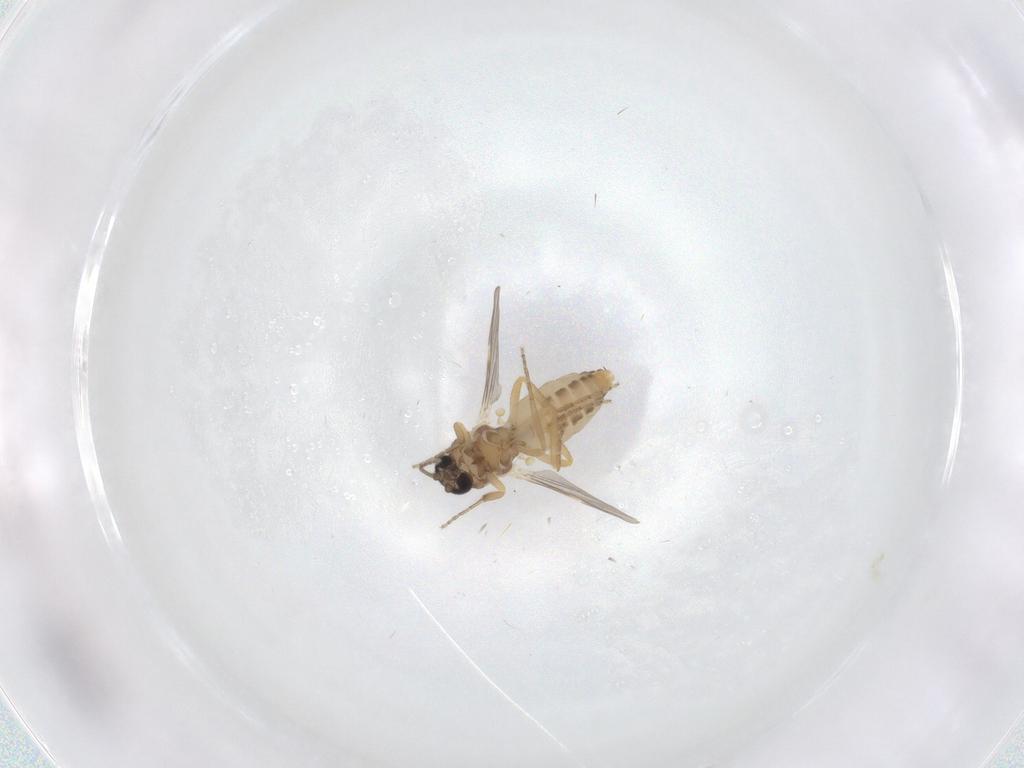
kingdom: Animalia
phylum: Arthropoda
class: Insecta
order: Diptera
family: Ceratopogonidae
